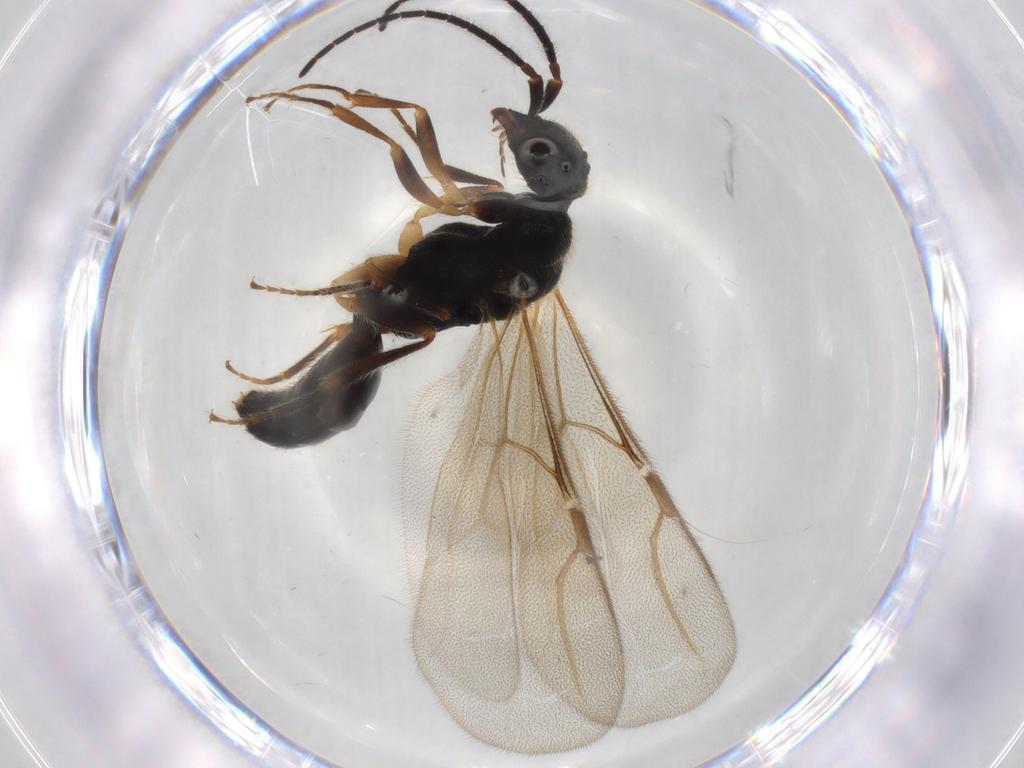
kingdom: Animalia
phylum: Arthropoda
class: Insecta
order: Hymenoptera
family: Bethylidae
